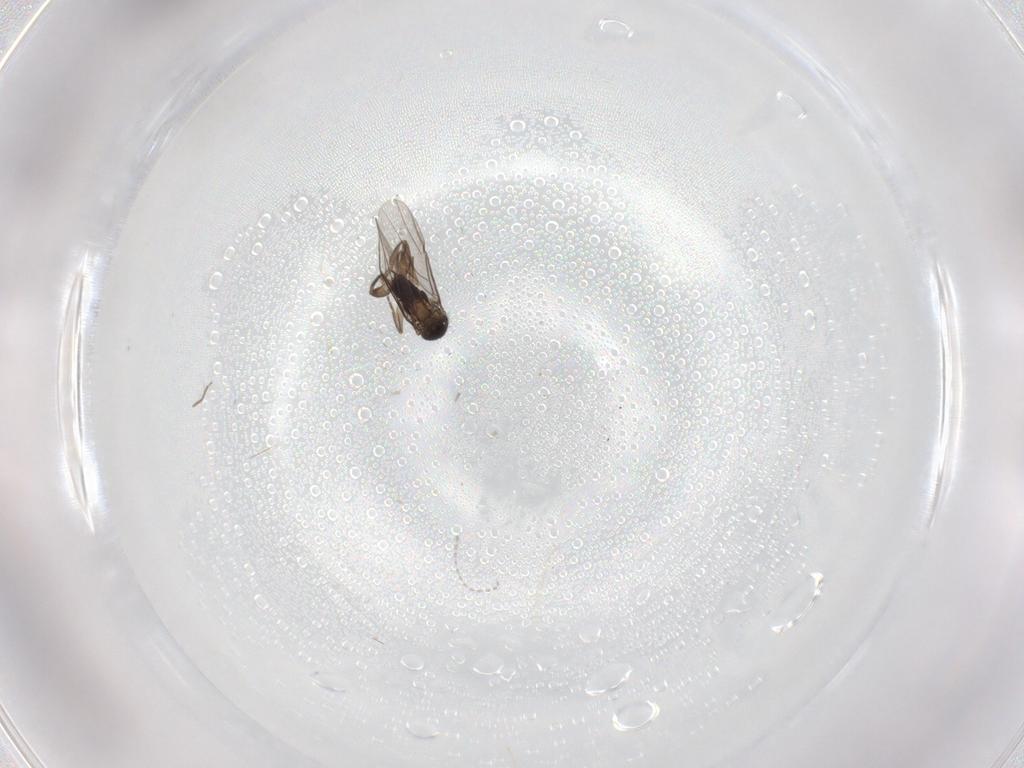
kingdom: Animalia
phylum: Arthropoda
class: Insecta
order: Diptera
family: Phoridae
